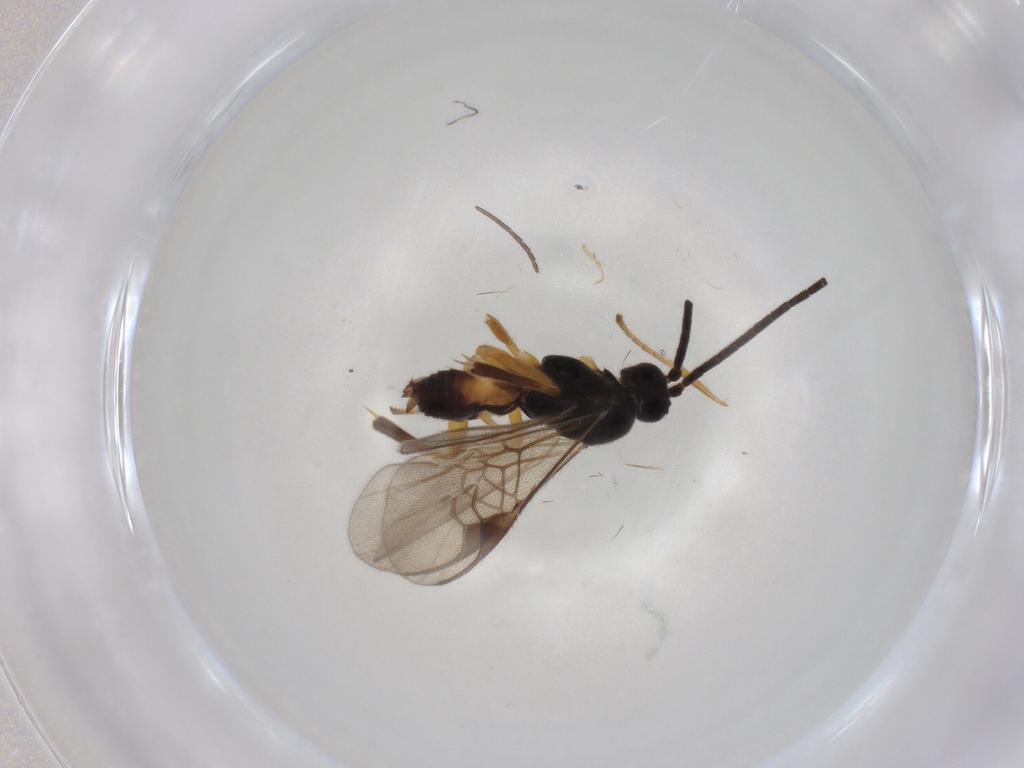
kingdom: Animalia
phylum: Arthropoda
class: Insecta
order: Hymenoptera
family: Braconidae
